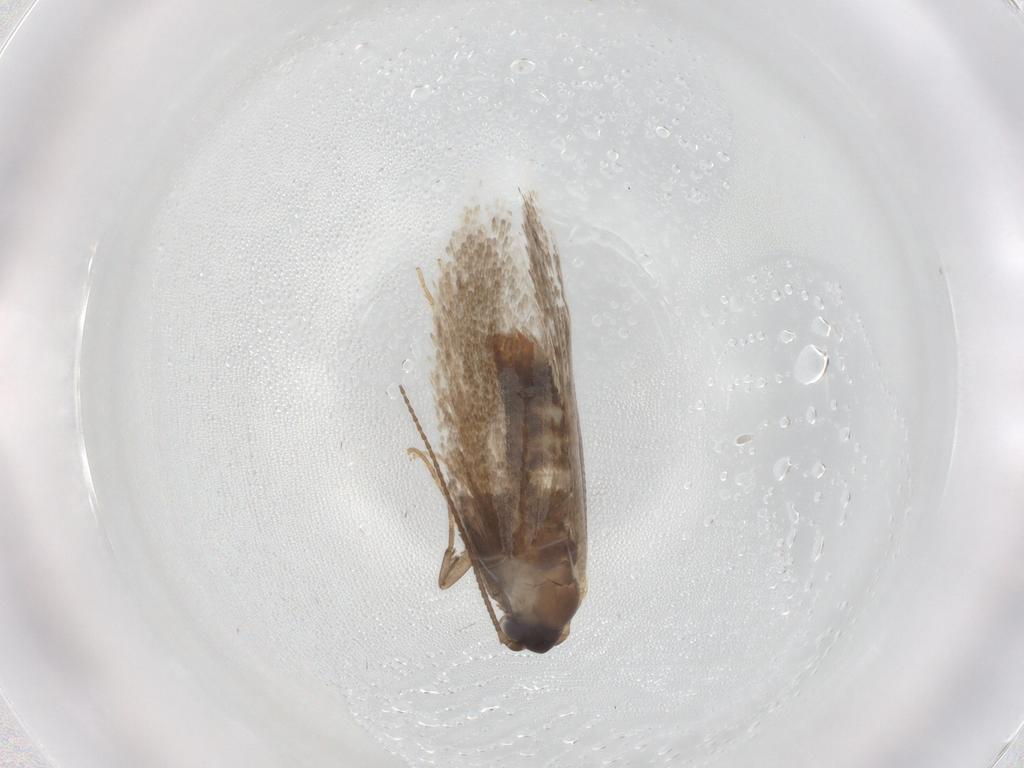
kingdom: Animalia
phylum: Arthropoda
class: Insecta
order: Lepidoptera
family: Gracillariidae
